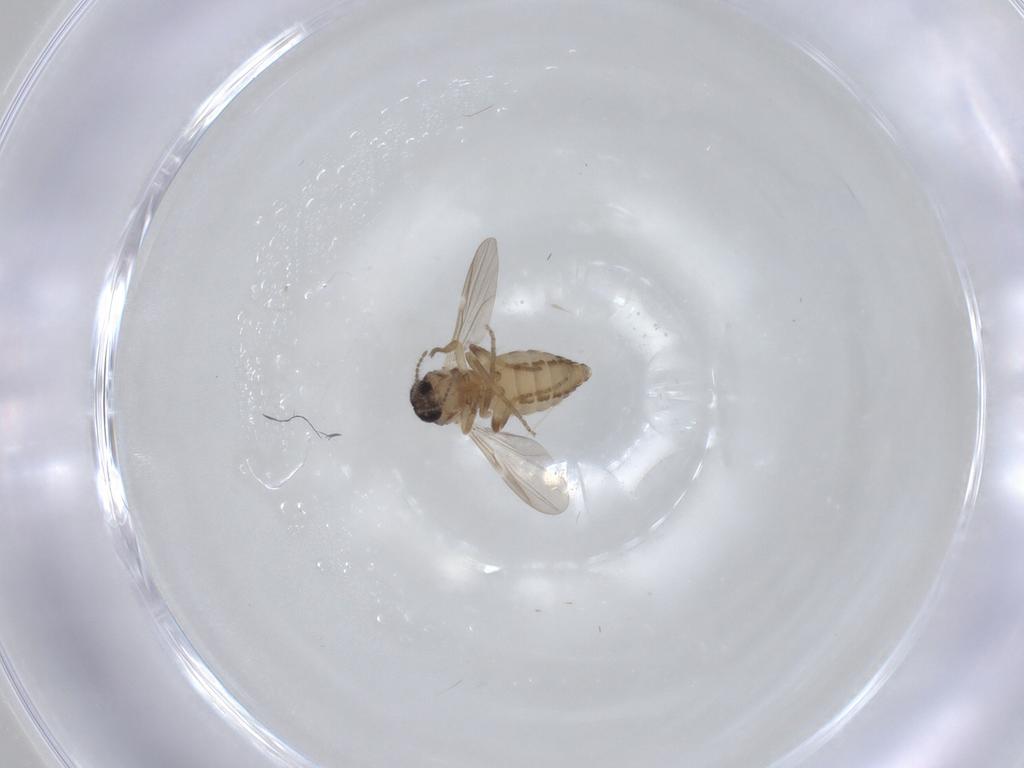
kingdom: Animalia
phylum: Arthropoda
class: Insecta
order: Diptera
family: Ceratopogonidae
